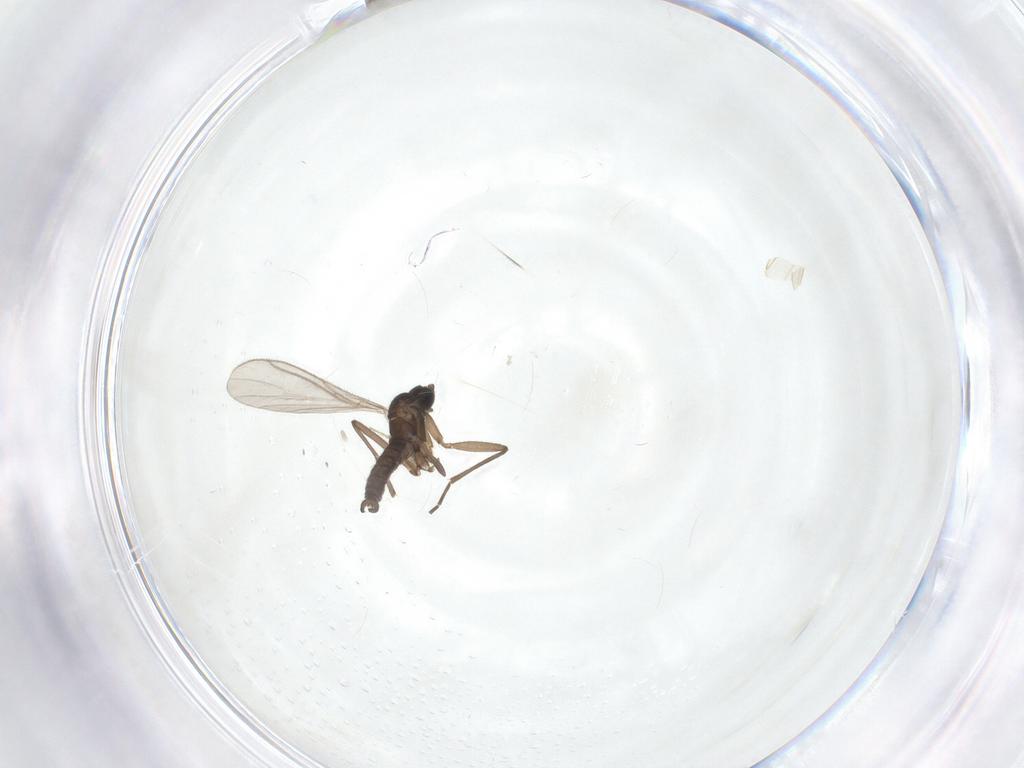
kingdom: Animalia
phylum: Arthropoda
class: Insecta
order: Diptera
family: Sciaridae
